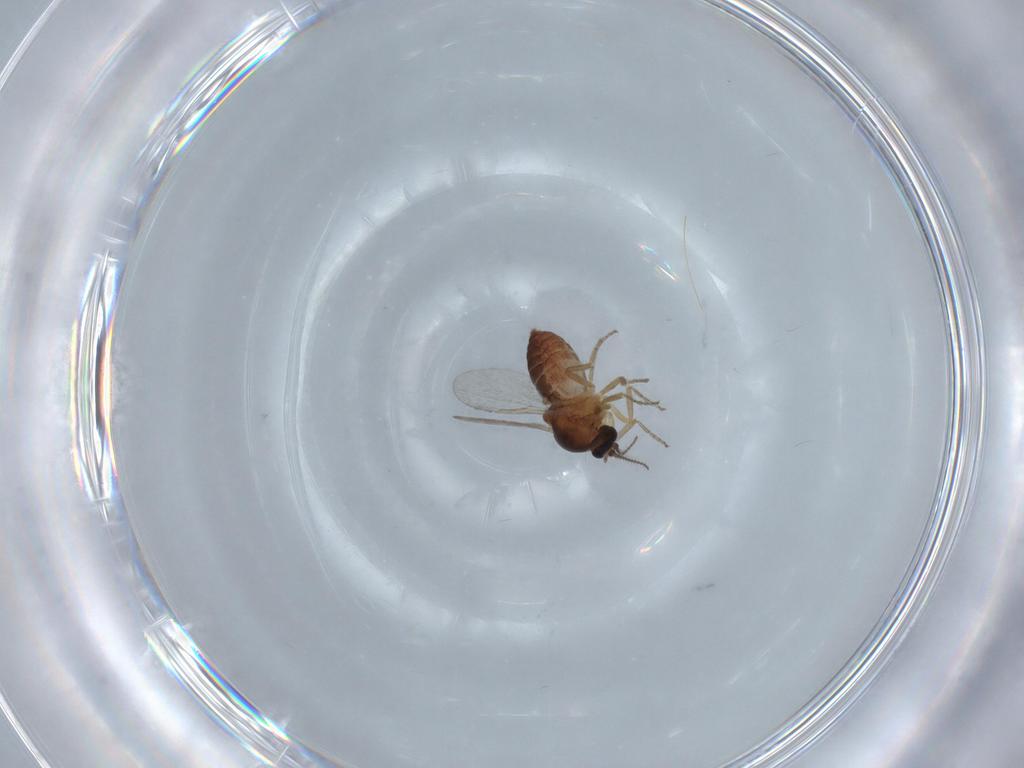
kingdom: Animalia
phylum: Arthropoda
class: Insecta
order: Diptera
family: Ceratopogonidae
